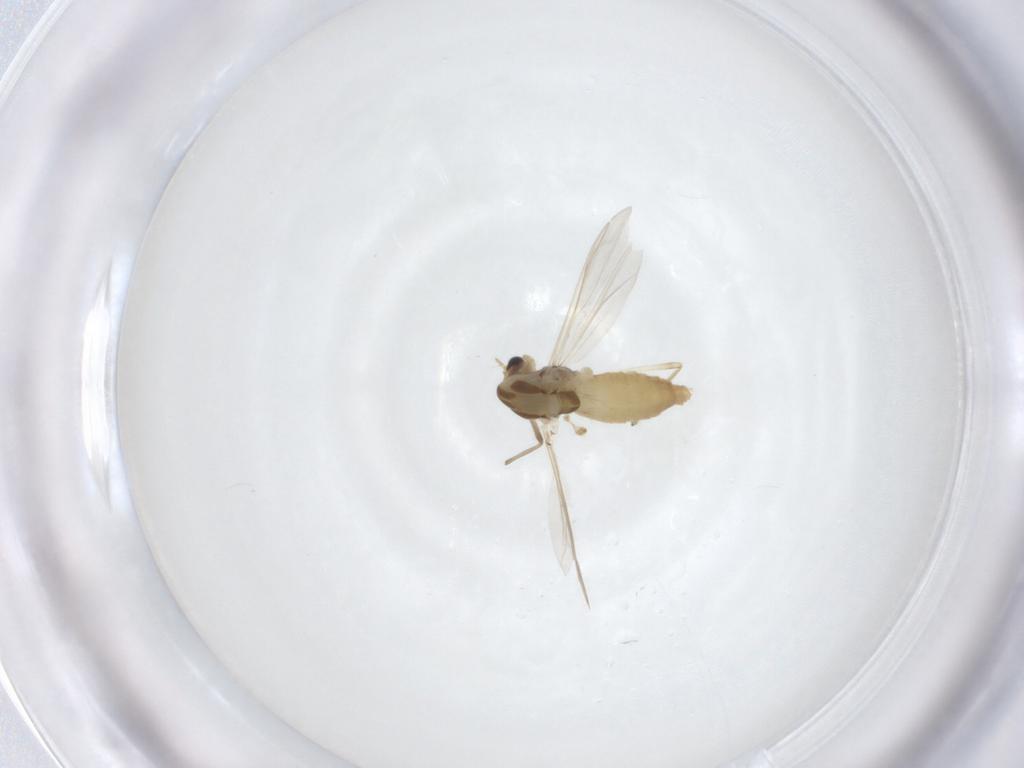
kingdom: Animalia
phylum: Arthropoda
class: Insecta
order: Diptera
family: Chironomidae
